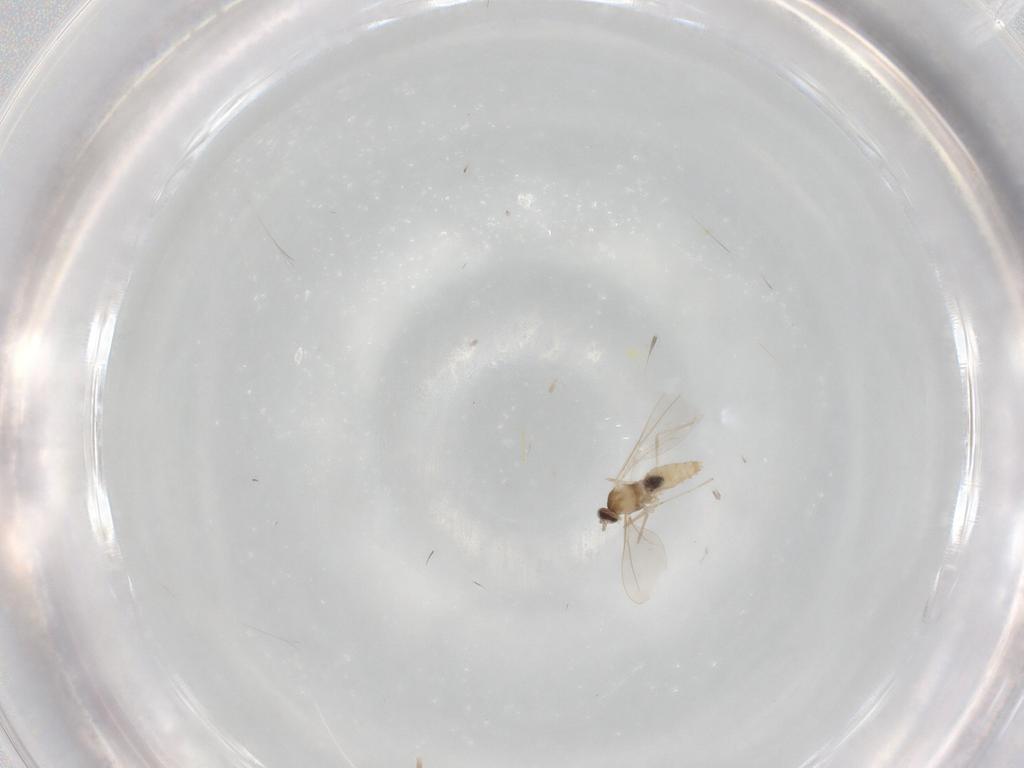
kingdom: Animalia
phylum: Arthropoda
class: Insecta
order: Diptera
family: Cecidomyiidae
